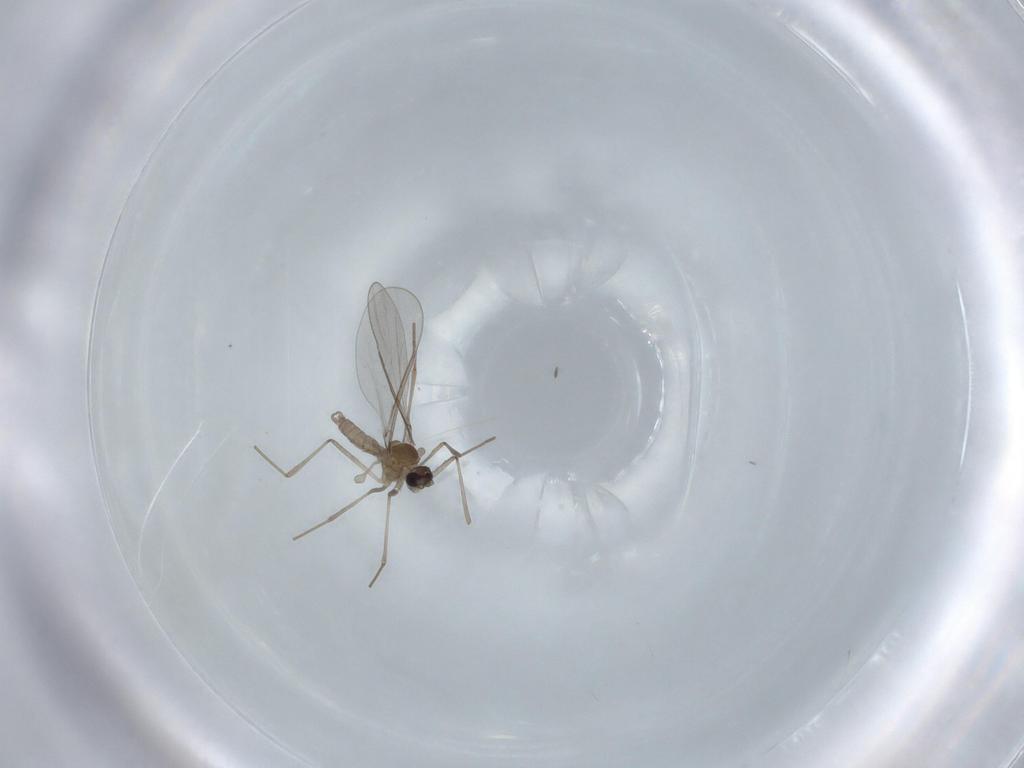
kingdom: Animalia
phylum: Arthropoda
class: Insecta
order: Diptera
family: Cecidomyiidae
